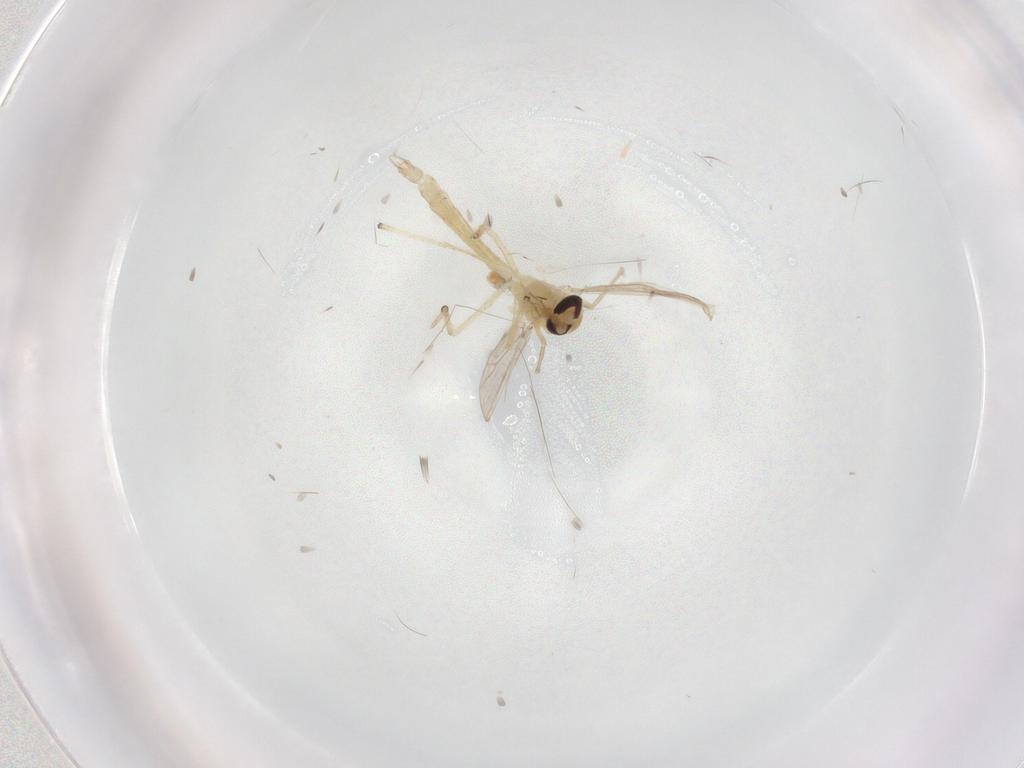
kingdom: Animalia
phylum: Arthropoda
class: Insecta
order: Diptera
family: Chironomidae
